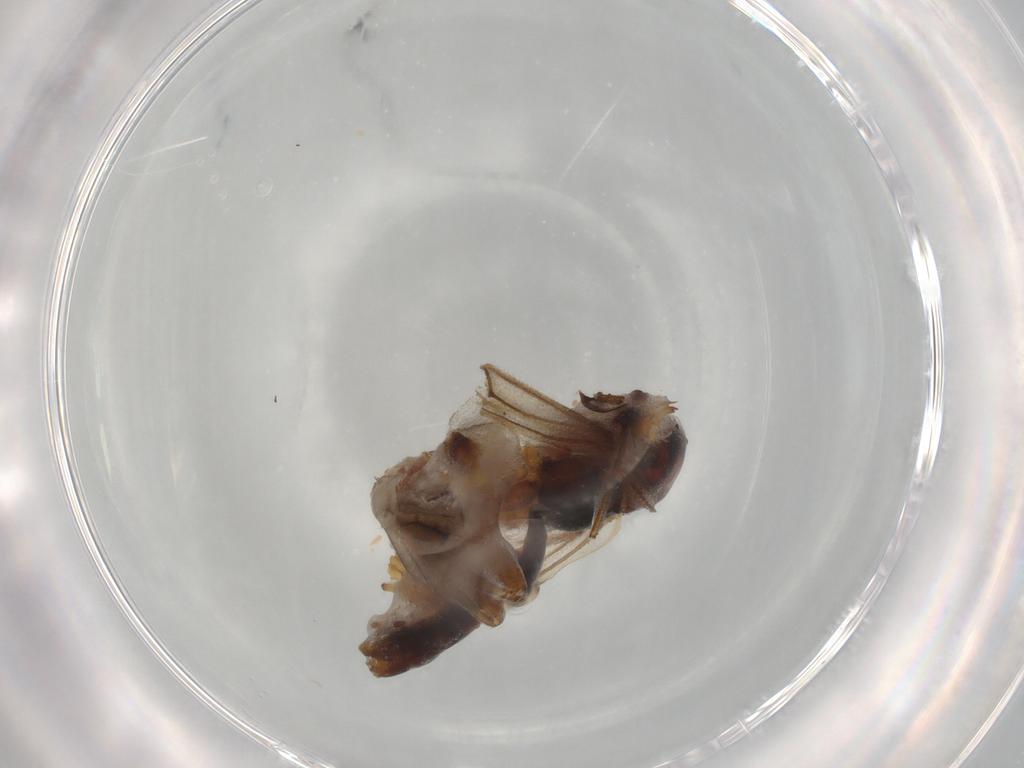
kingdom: Animalia
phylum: Arthropoda
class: Insecta
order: Hymenoptera
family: Braconidae
